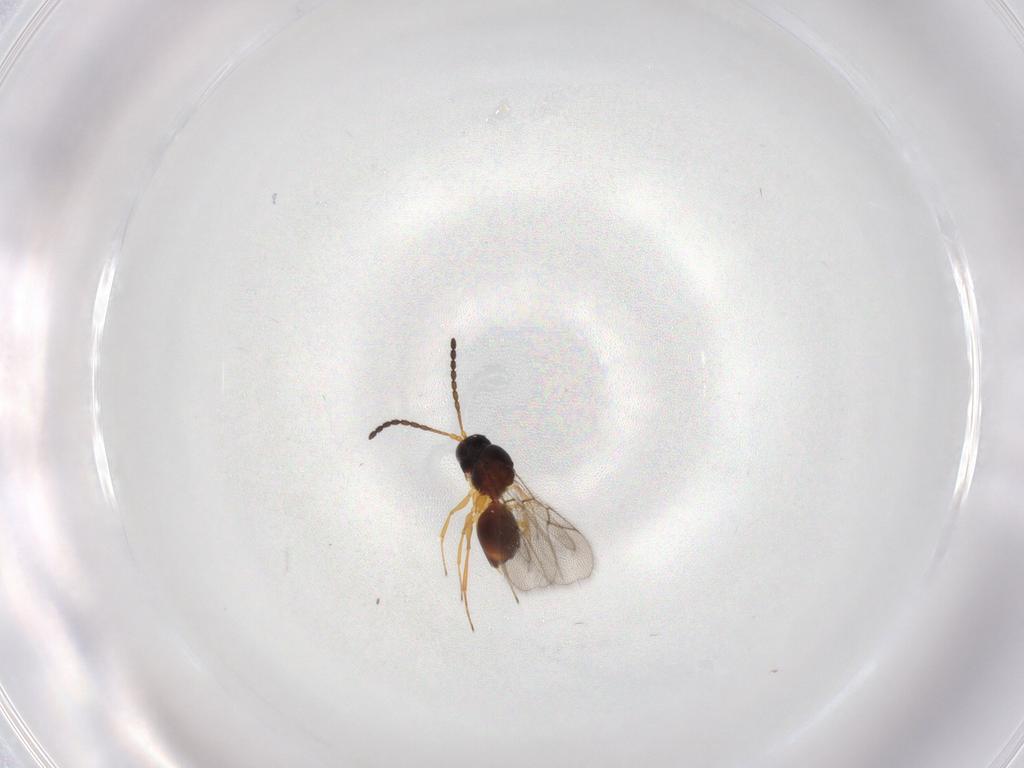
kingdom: Animalia
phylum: Arthropoda
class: Insecta
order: Hymenoptera
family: Figitidae
